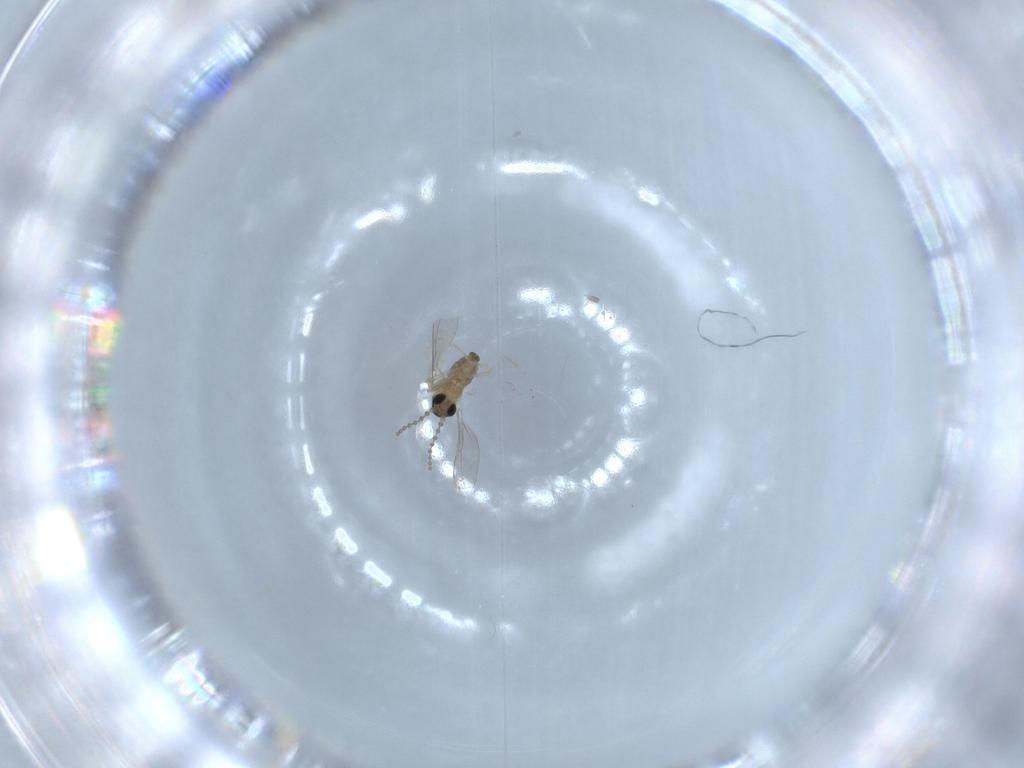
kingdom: Animalia
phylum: Arthropoda
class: Insecta
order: Diptera
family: Cecidomyiidae
